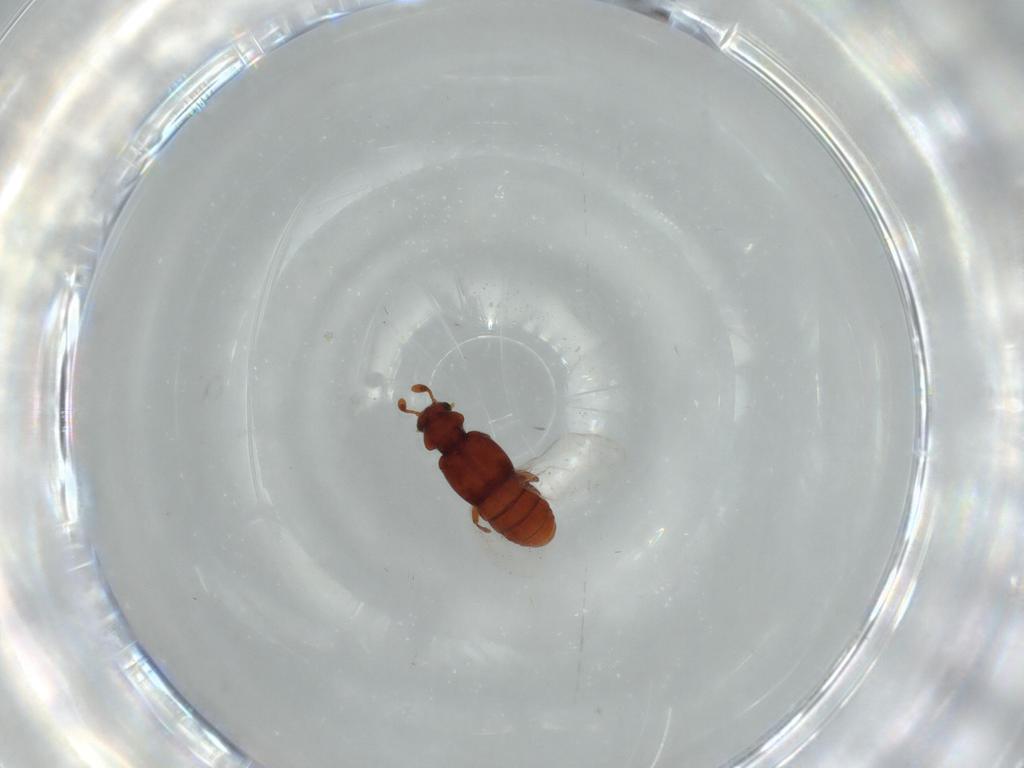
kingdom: Animalia
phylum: Arthropoda
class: Insecta
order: Coleoptera
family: Staphylinidae
